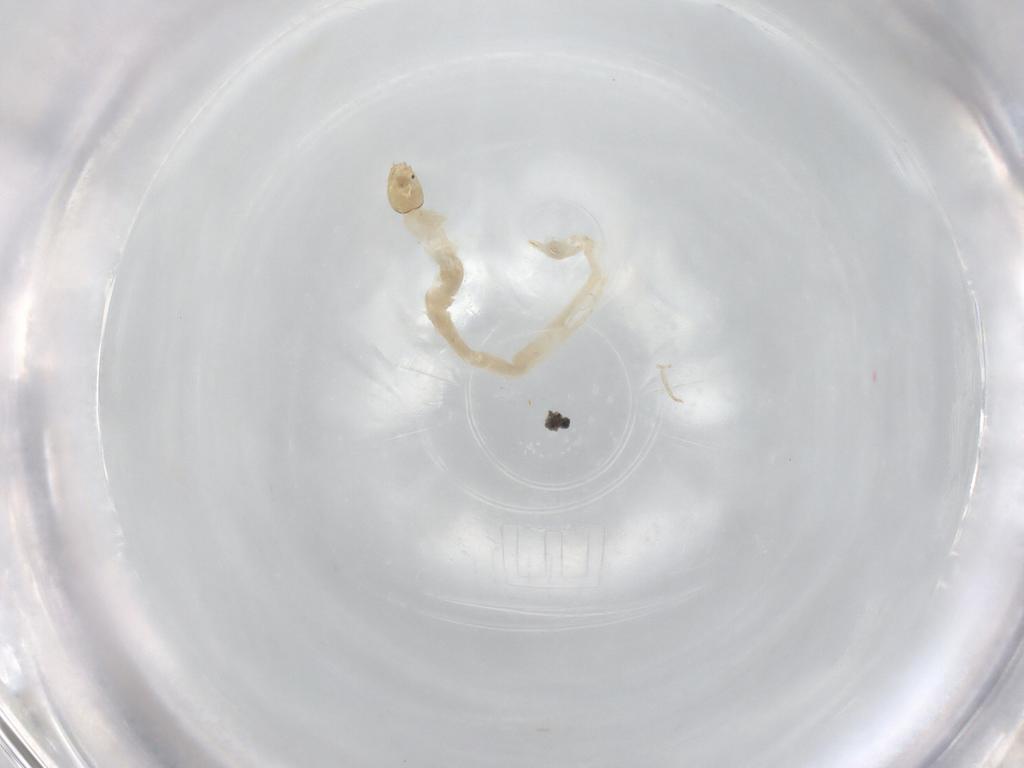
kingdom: Animalia
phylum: Arthropoda
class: Insecta
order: Diptera
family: Chironomidae
